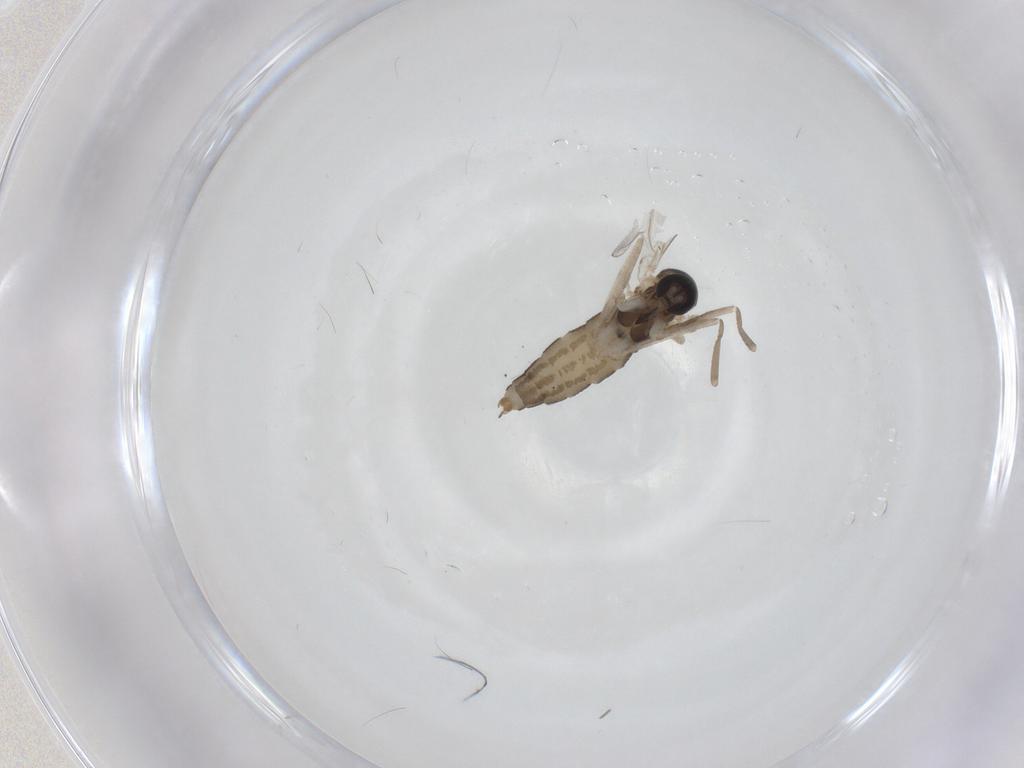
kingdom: Animalia
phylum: Arthropoda
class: Insecta
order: Diptera
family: Cecidomyiidae
